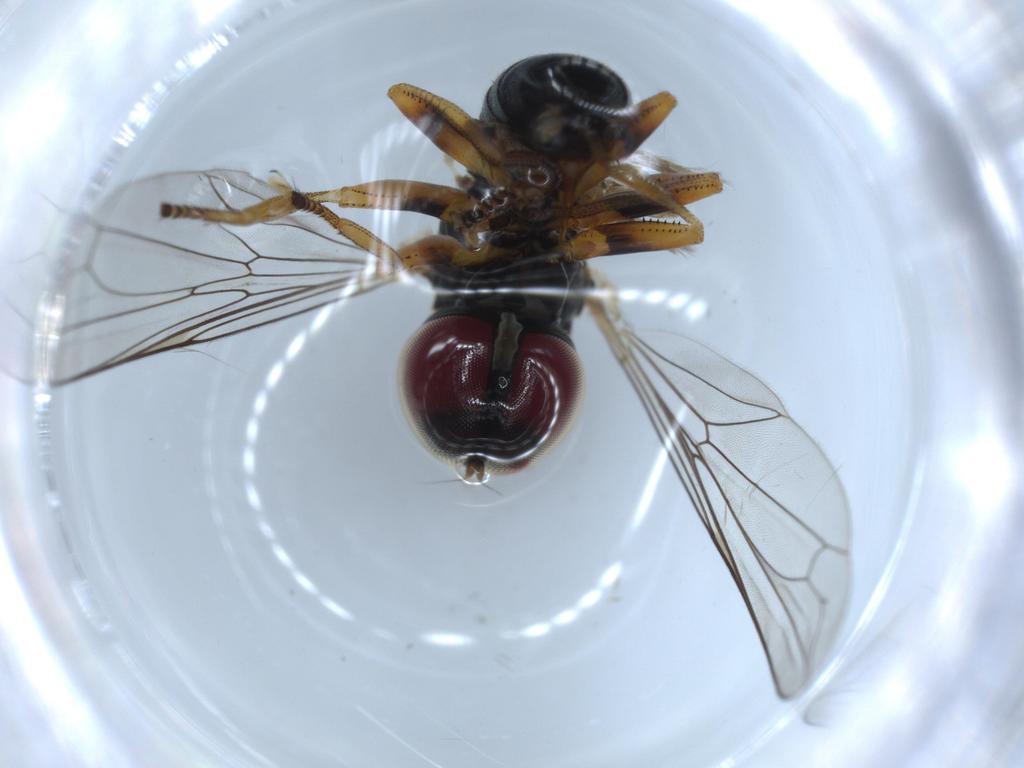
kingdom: Animalia
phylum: Arthropoda
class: Insecta
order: Diptera
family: Pipunculidae
